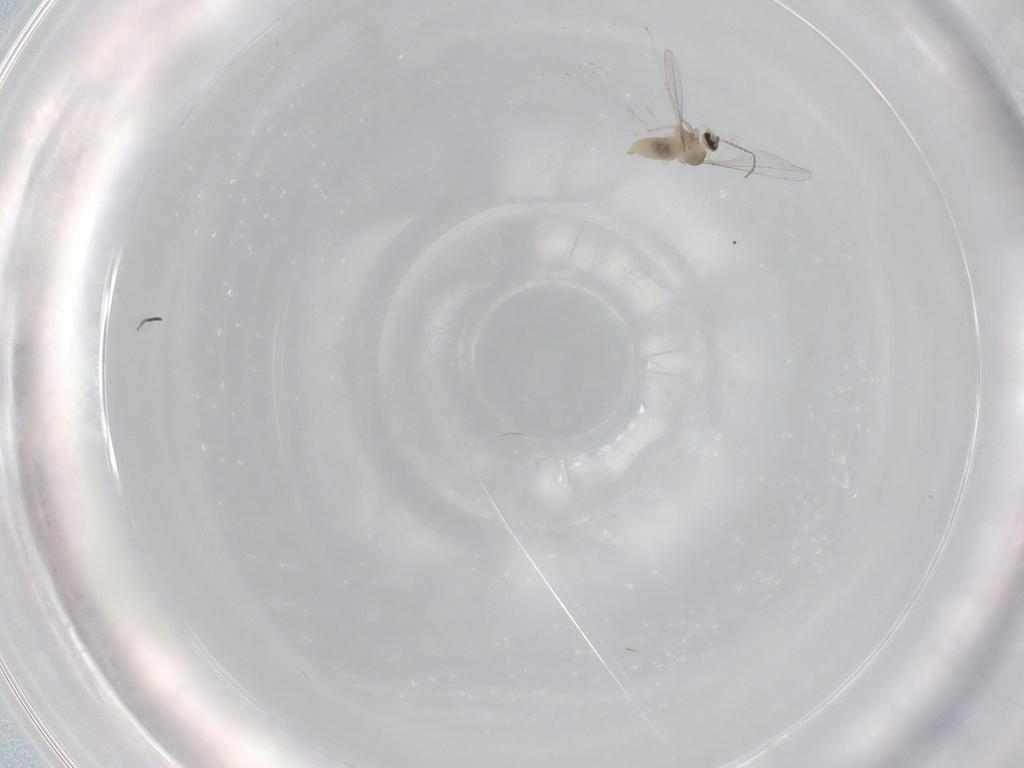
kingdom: Animalia
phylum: Arthropoda
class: Insecta
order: Diptera
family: Cecidomyiidae
